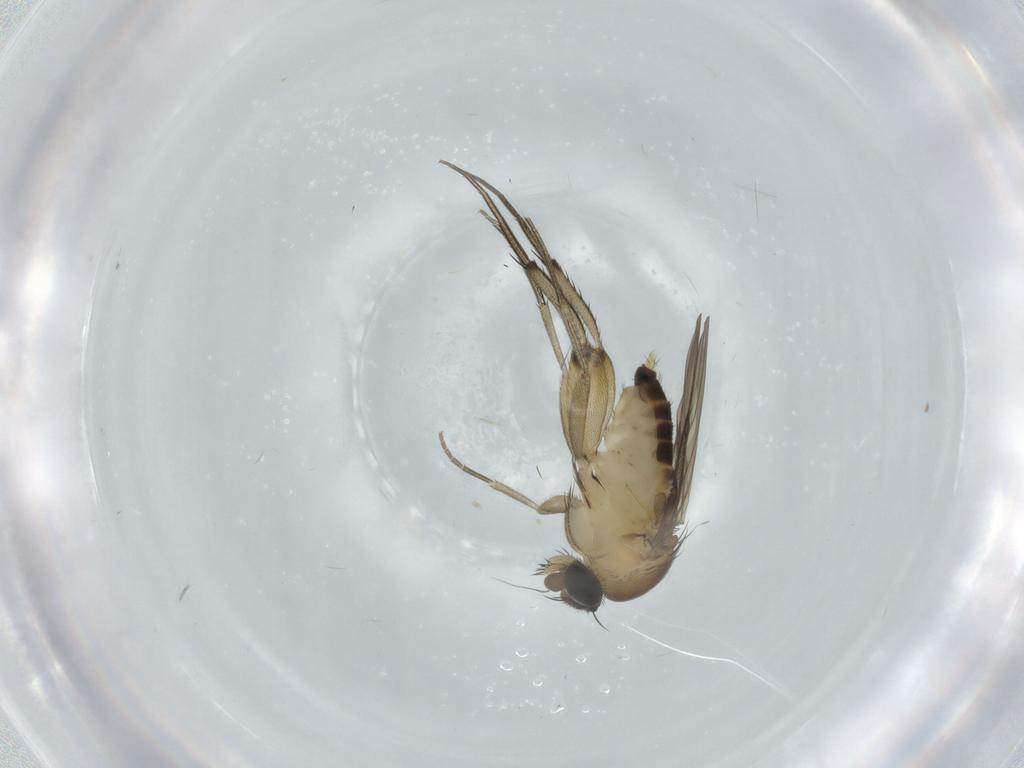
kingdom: Animalia
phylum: Arthropoda
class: Insecta
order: Diptera
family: Phoridae
